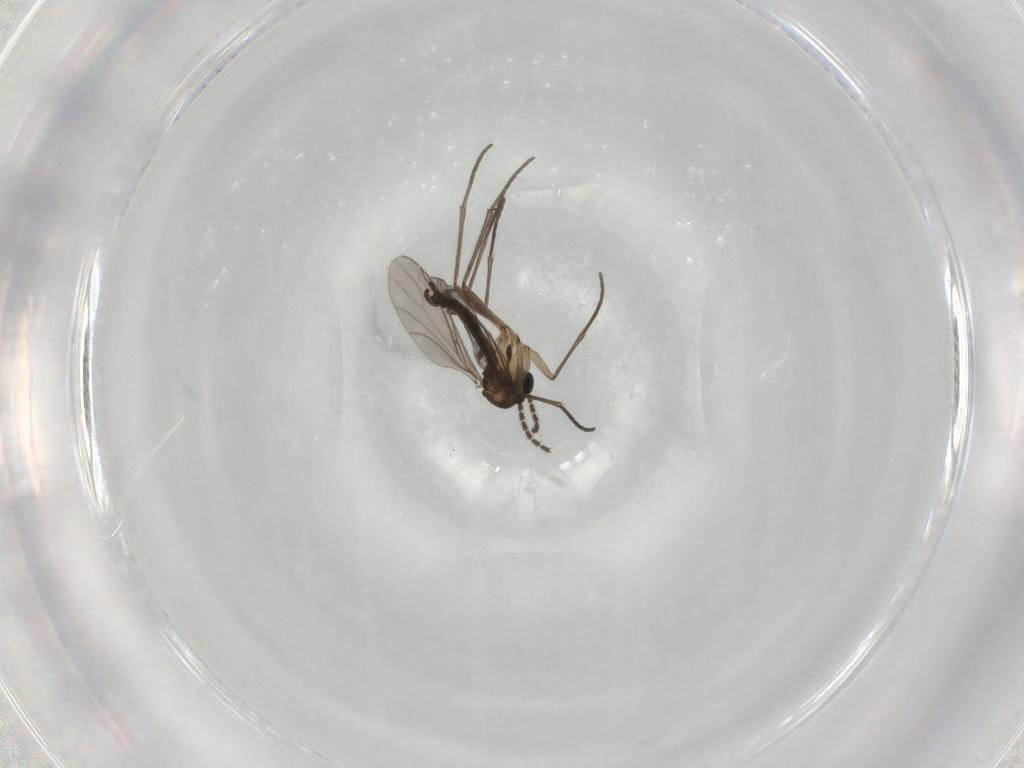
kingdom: Animalia
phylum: Arthropoda
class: Insecta
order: Diptera
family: Sciaridae
